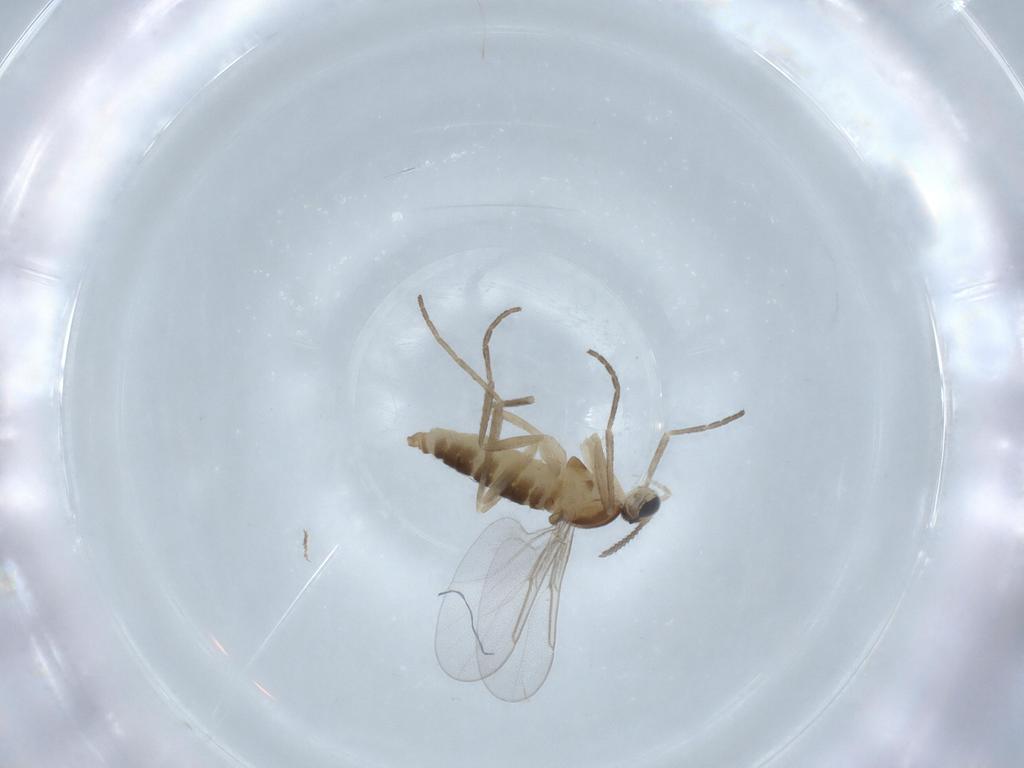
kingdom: Animalia
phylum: Arthropoda
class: Insecta
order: Diptera
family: Cecidomyiidae
